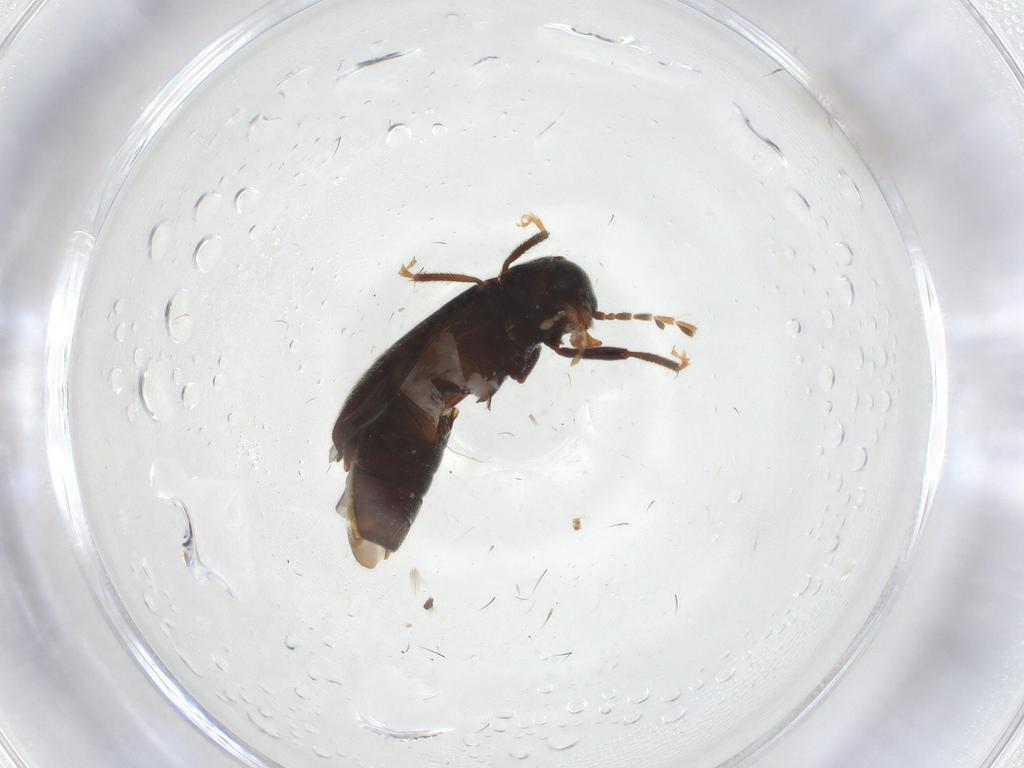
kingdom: Animalia
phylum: Arthropoda
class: Insecta
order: Coleoptera
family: Ptilodactylidae
